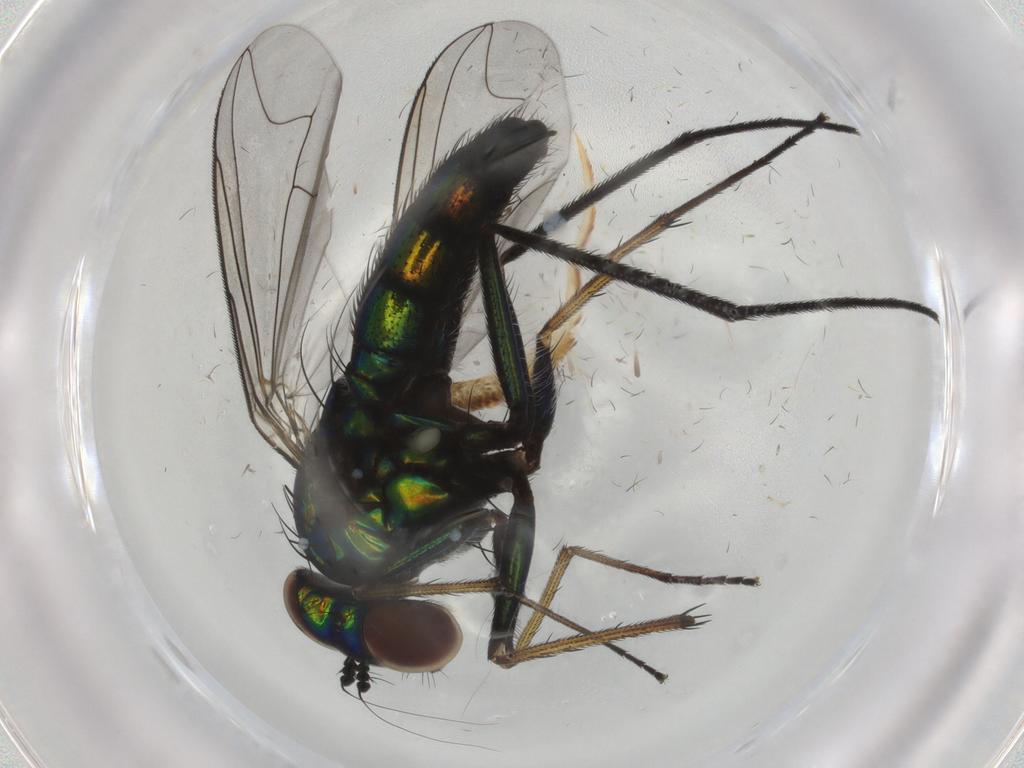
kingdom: Animalia
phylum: Arthropoda
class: Insecta
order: Diptera
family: Dolichopodidae
